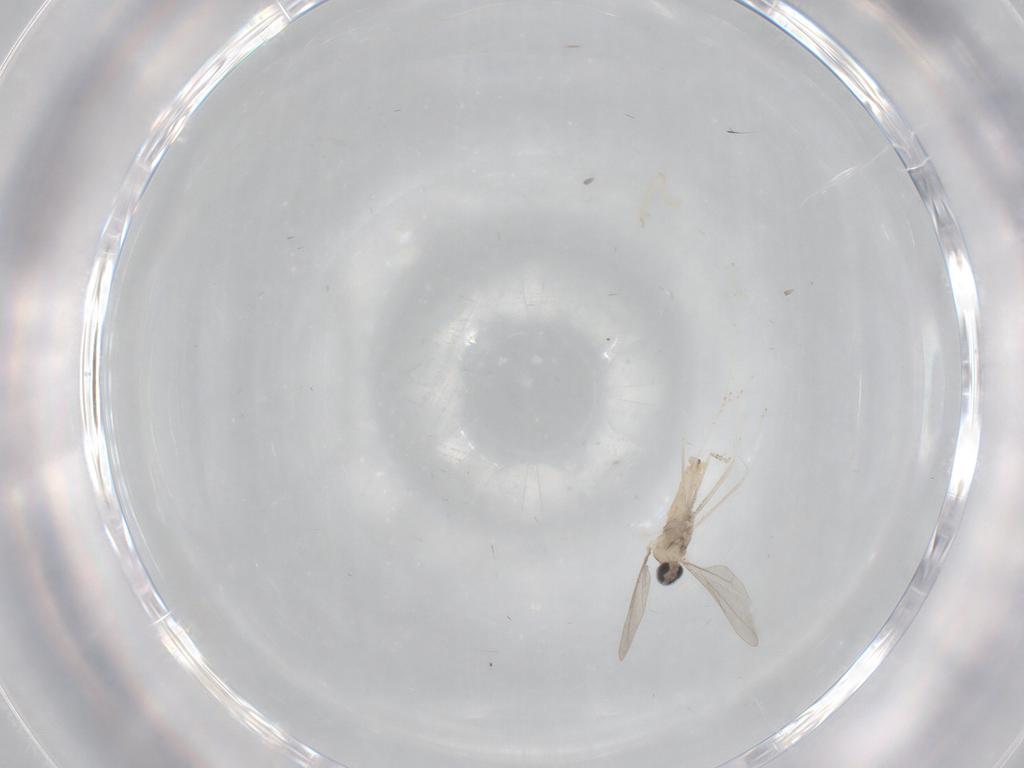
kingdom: Animalia
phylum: Arthropoda
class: Insecta
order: Diptera
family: Cecidomyiidae
